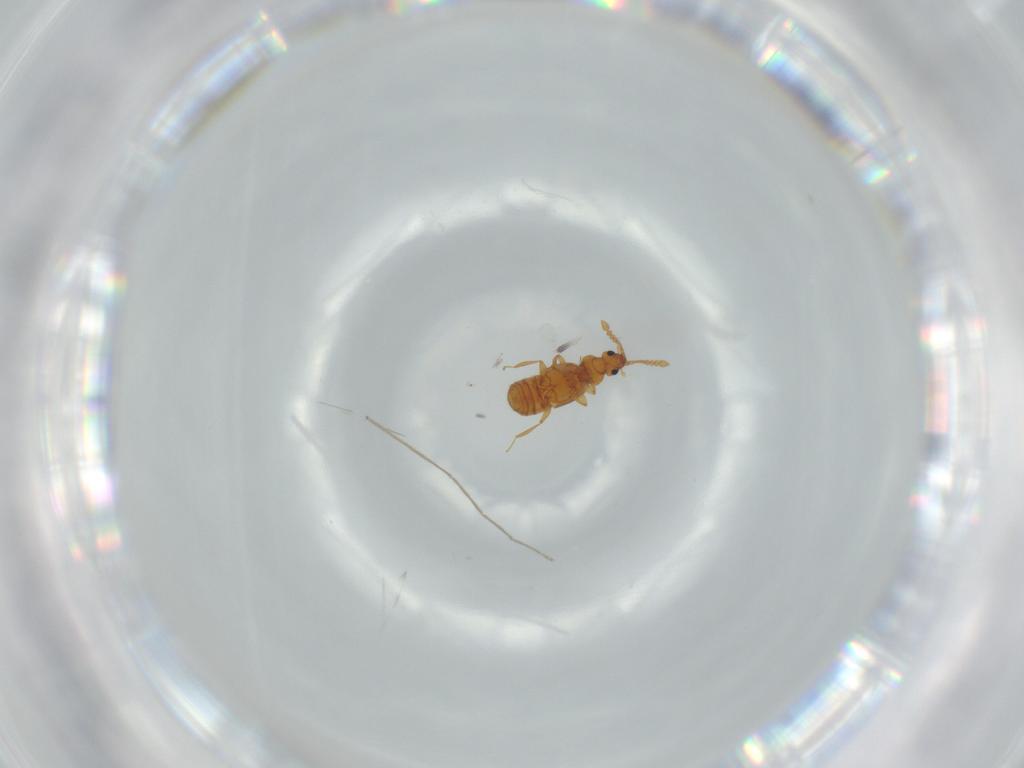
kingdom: Animalia
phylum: Arthropoda
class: Insecta
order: Coleoptera
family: Staphylinidae
